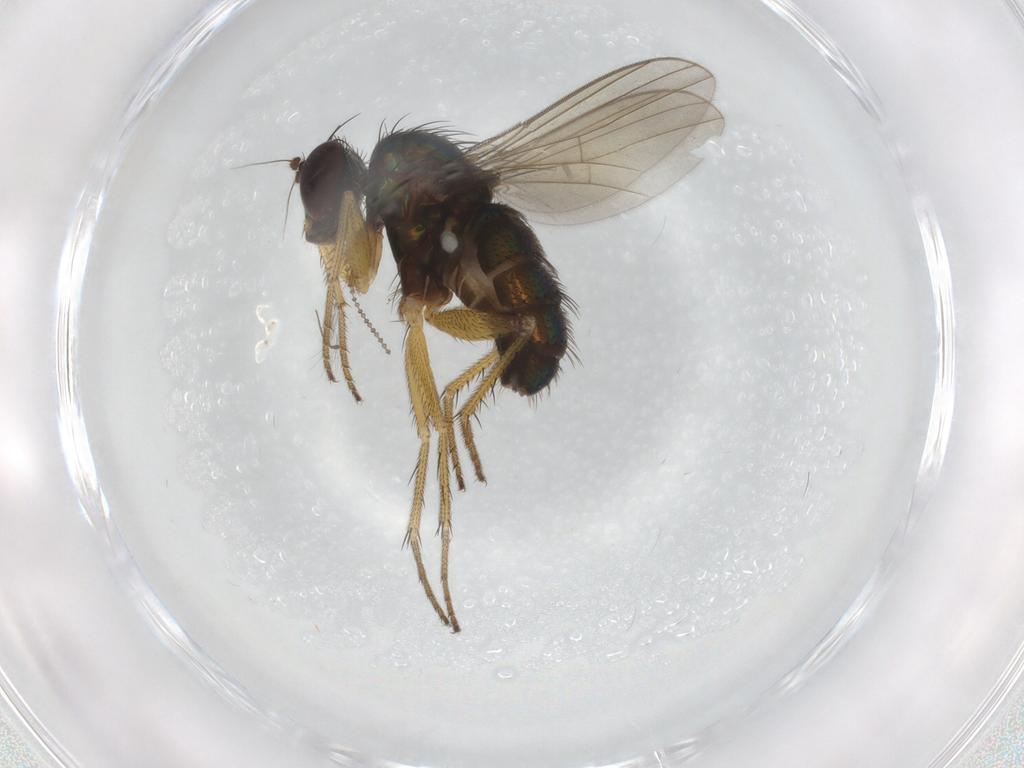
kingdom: Animalia
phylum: Arthropoda
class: Insecta
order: Diptera
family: Dolichopodidae
